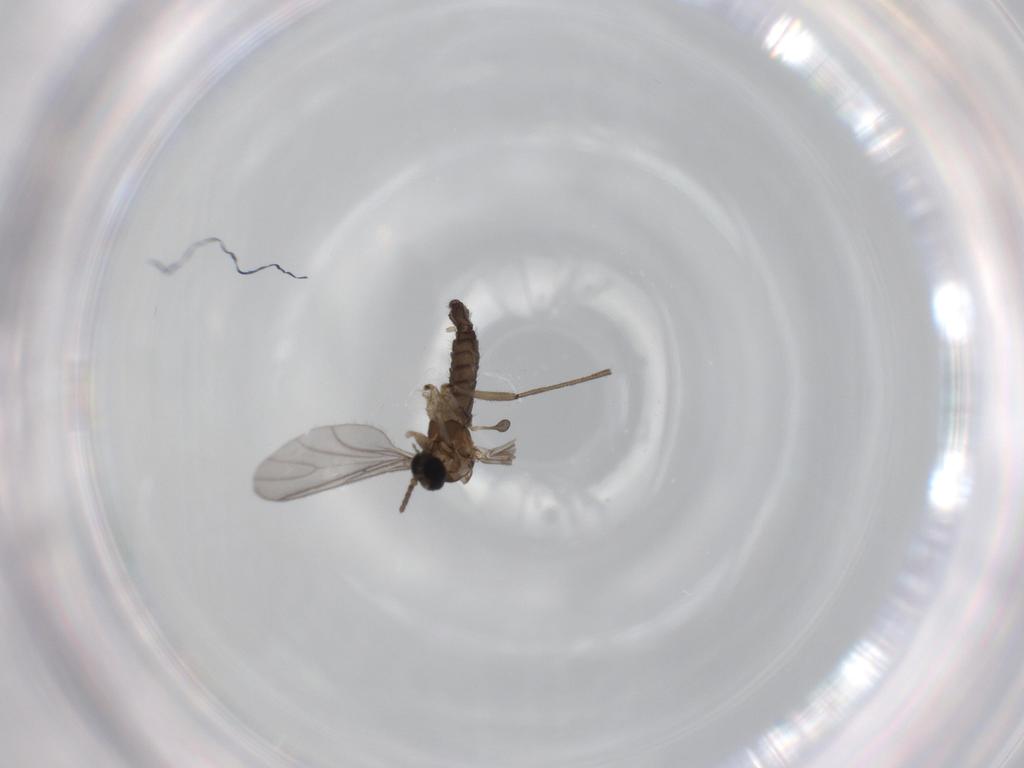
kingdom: Animalia
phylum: Arthropoda
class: Insecta
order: Diptera
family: Sciaridae
